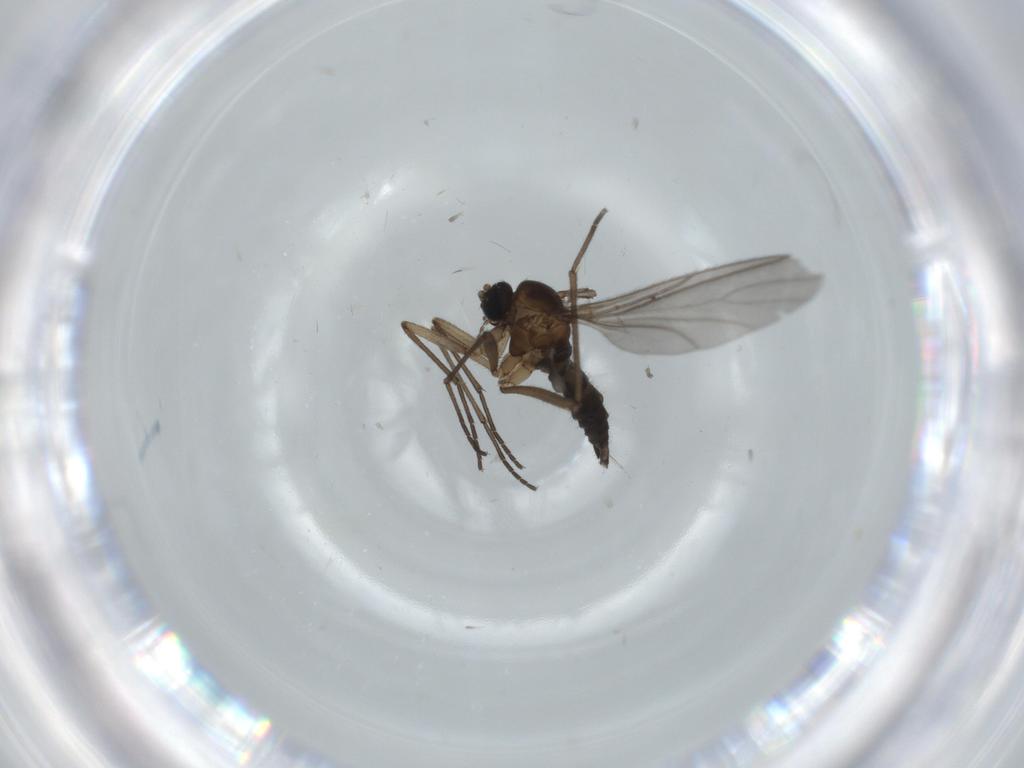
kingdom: Animalia
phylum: Arthropoda
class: Insecta
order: Diptera
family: Sciaridae
